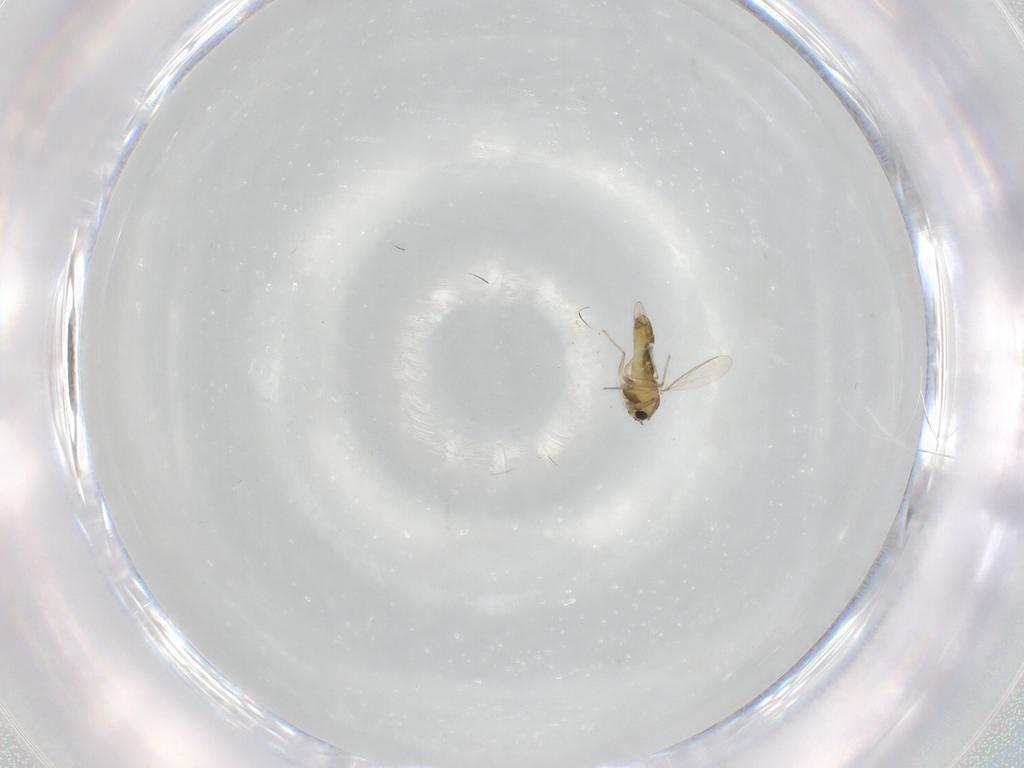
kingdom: Animalia
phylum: Arthropoda
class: Insecta
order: Diptera
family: Chironomidae
